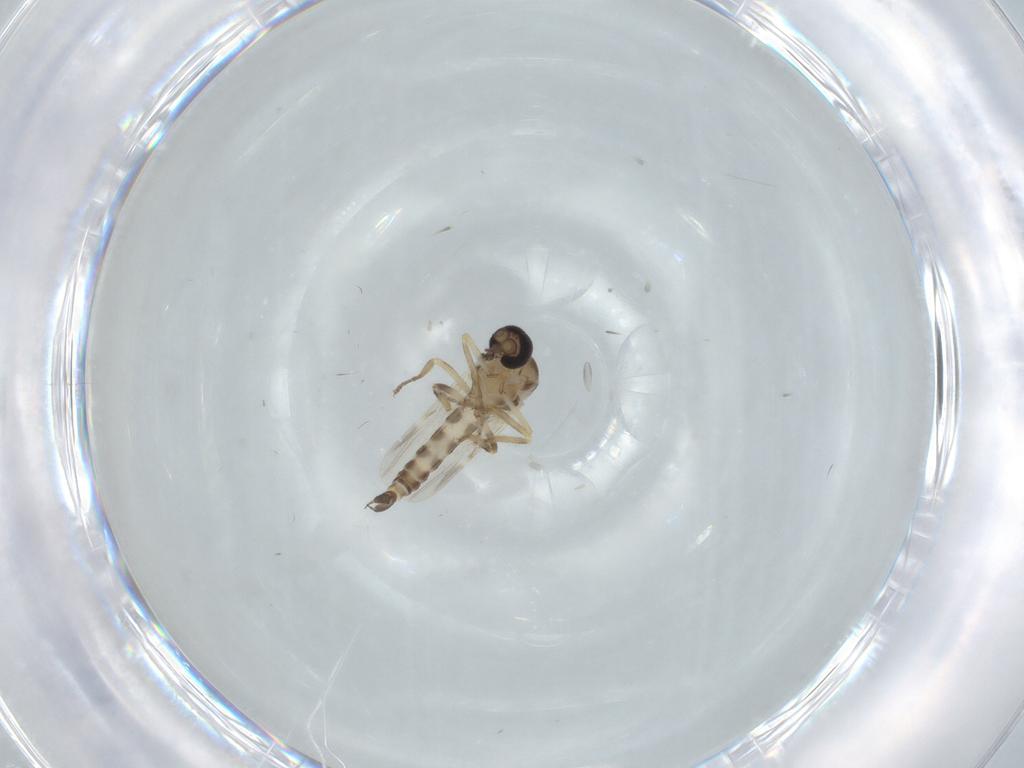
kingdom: Animalia
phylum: Arthropoda
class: Insecta
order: Diptera
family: Ceratopogonidae
